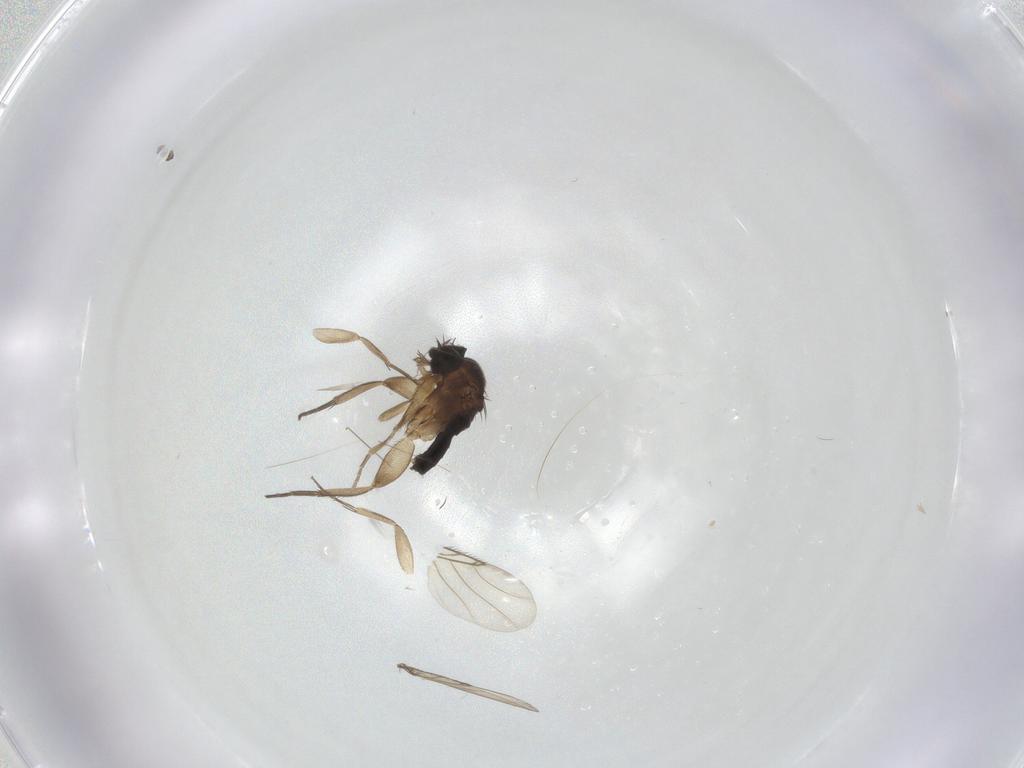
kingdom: Animalia
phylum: Arthropoda
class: Insecta
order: Diptera
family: Phoridae
